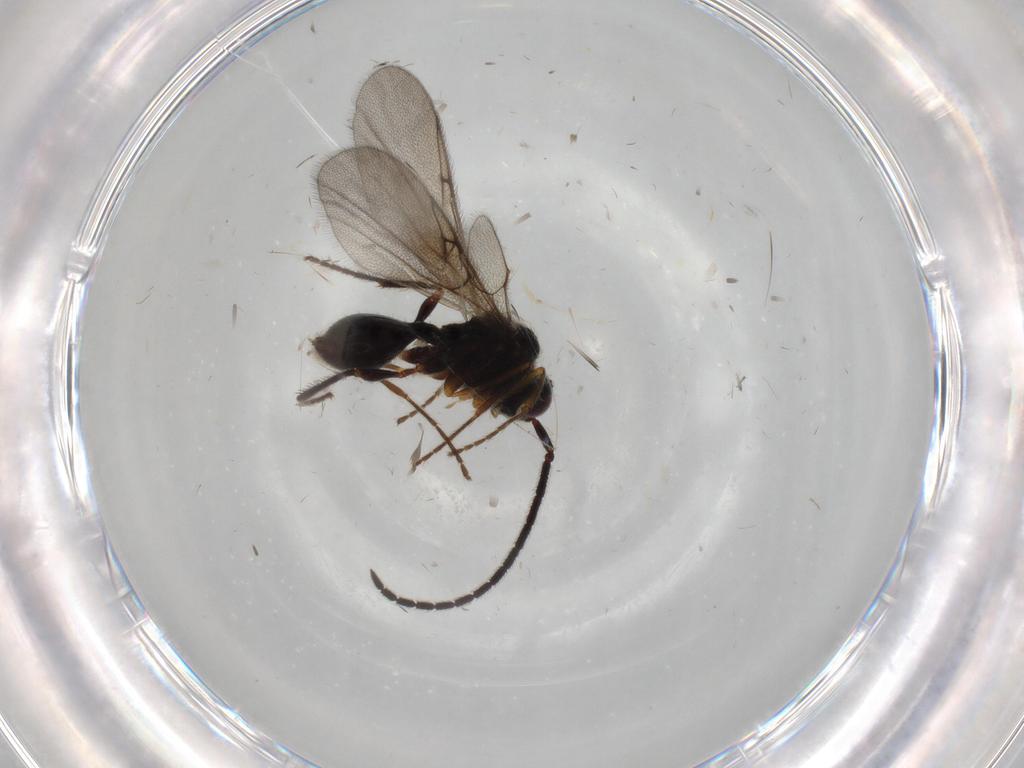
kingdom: Animalia
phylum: Arthropoda
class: Insecta
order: Hymenoptera
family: Diapriidae
